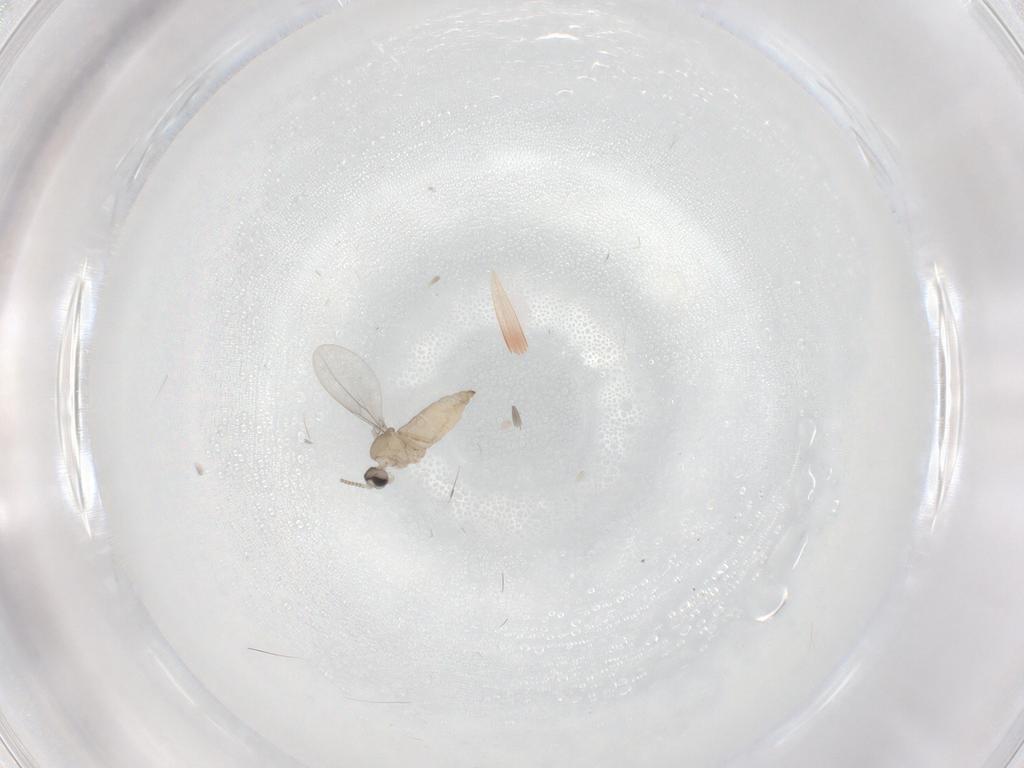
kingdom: Animalia
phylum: Arthropoda
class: Insecta
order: Diptera
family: Cecidomyiidae
